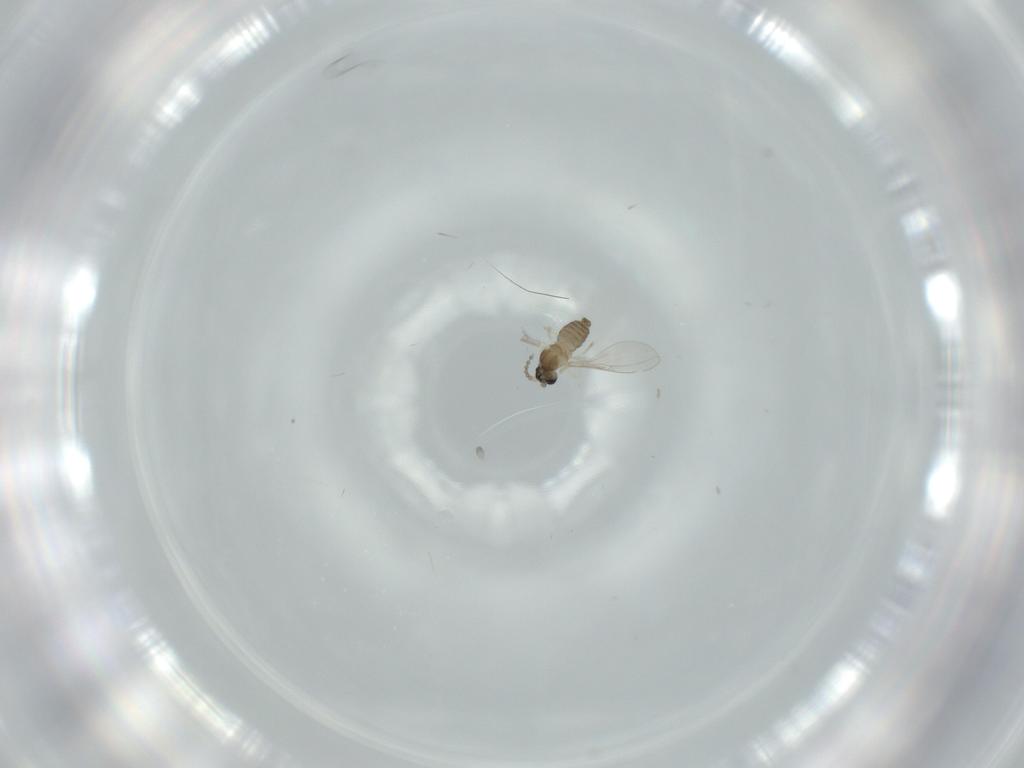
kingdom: Animalia
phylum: Arthropoda
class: Insecta
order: Diptera
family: Cecidomyiidae
